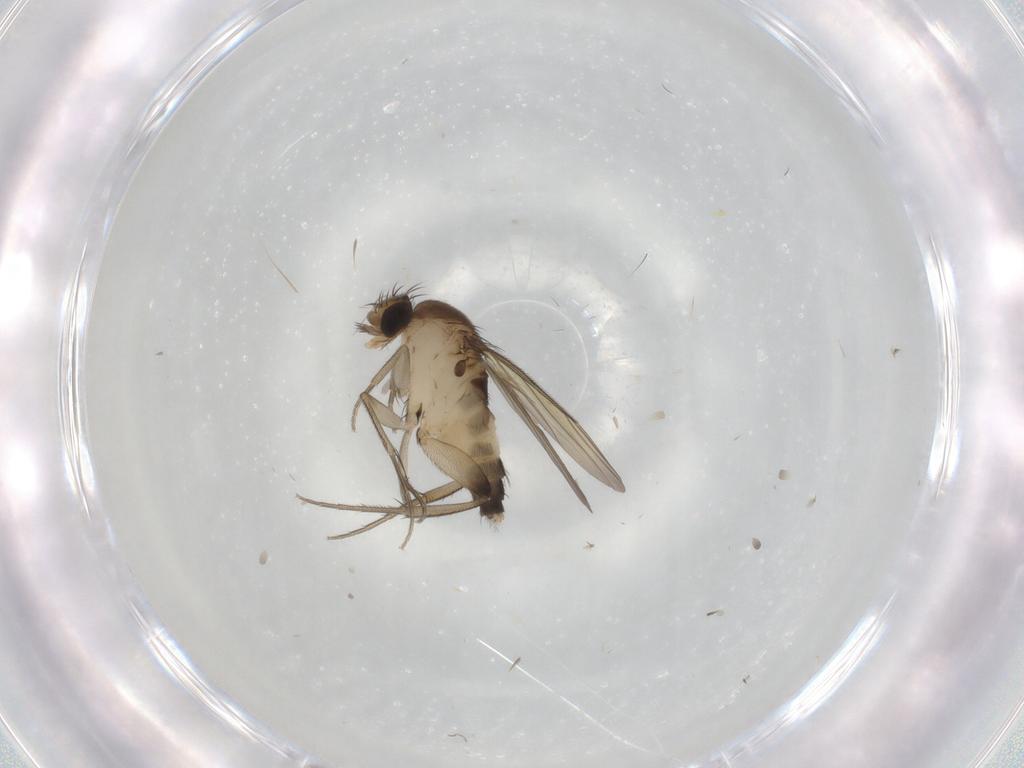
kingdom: Animalia
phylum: Arthropoda
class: Insecta
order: Diptera
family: Phoridae
